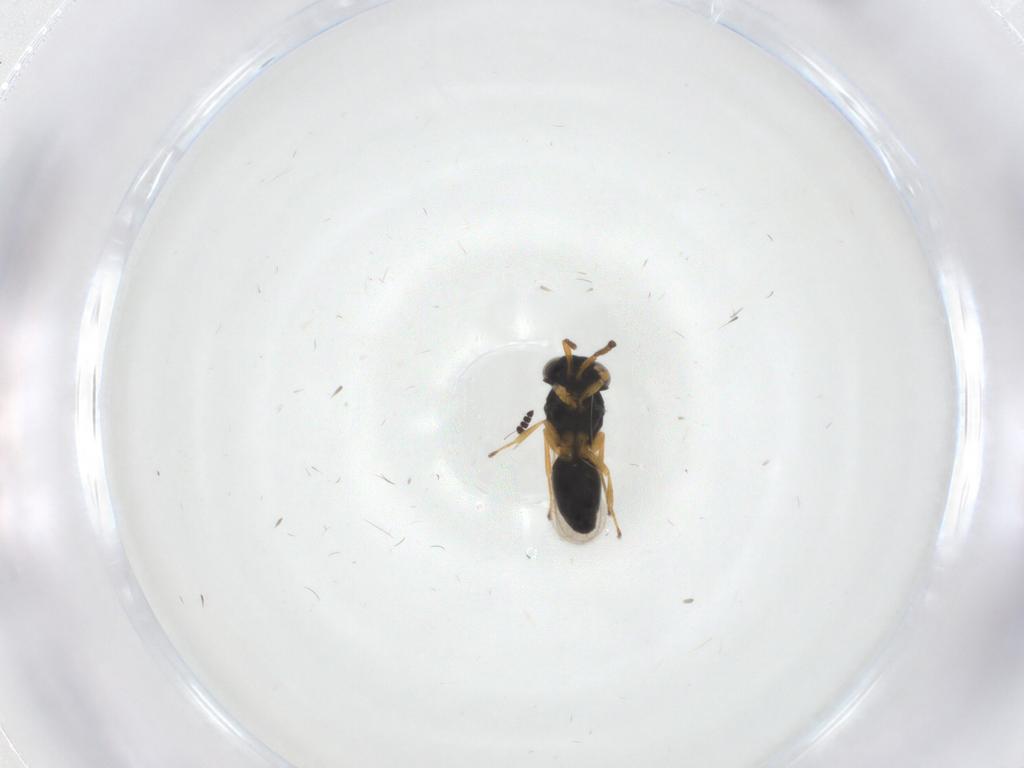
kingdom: Animalia
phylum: Arthropoda
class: Insecta
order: Hymenoptera
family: Scelionidae
